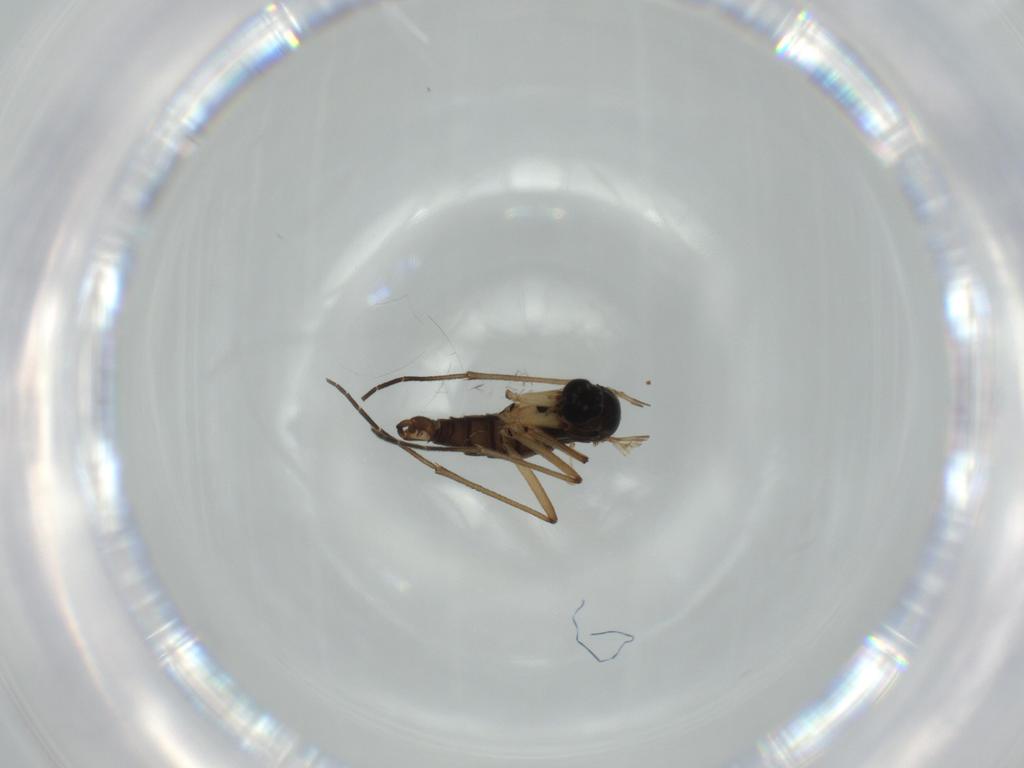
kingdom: Animalia
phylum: Arthropoda
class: Insecta
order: Diptera
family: Sciaridae
